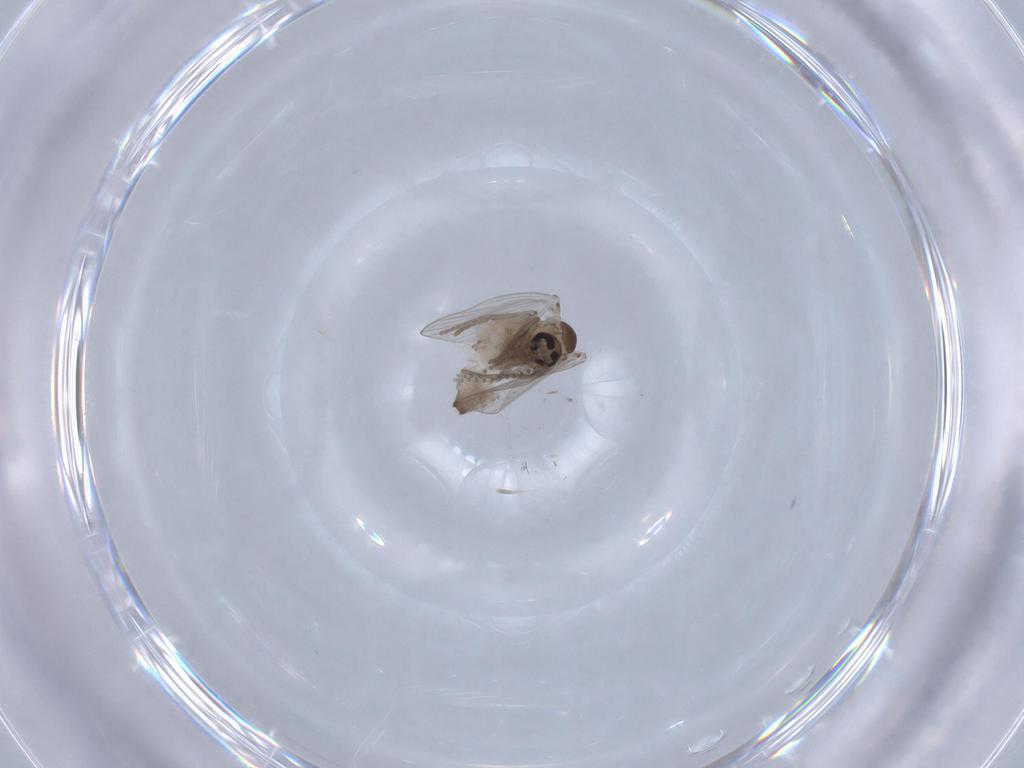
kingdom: Animalia
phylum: Arthropoda
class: Insecta
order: Diptera
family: Psychodidae
